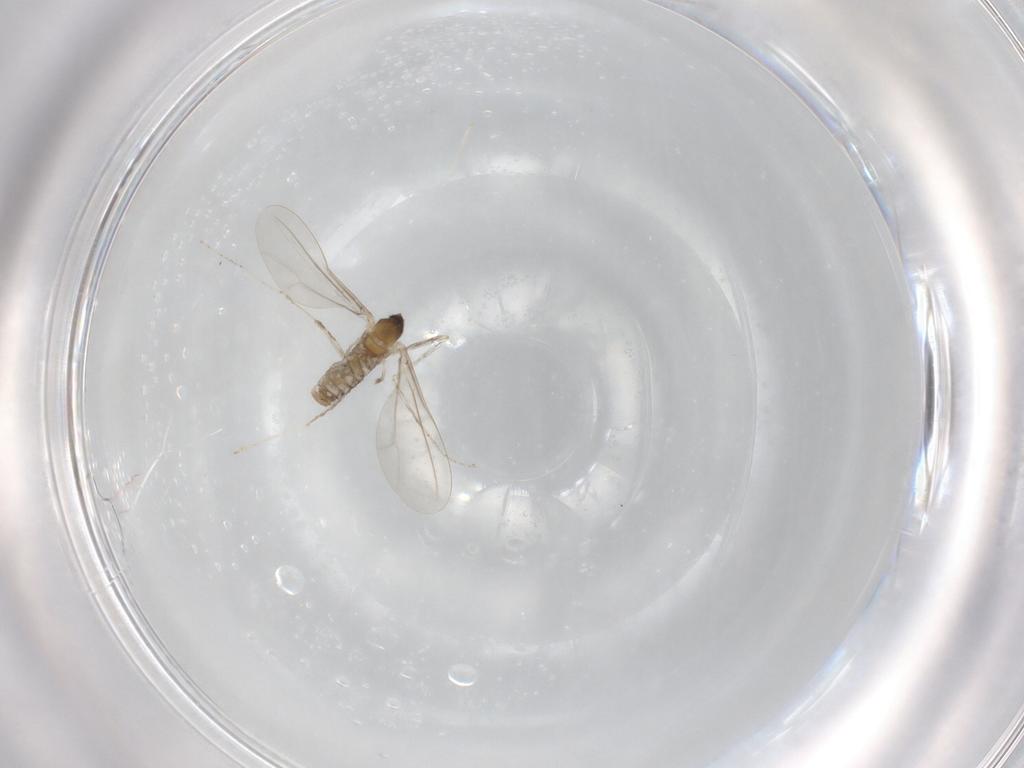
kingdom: Animalia
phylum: Arthropoda
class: Insecta
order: Diptera
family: Cecidomyiidae
